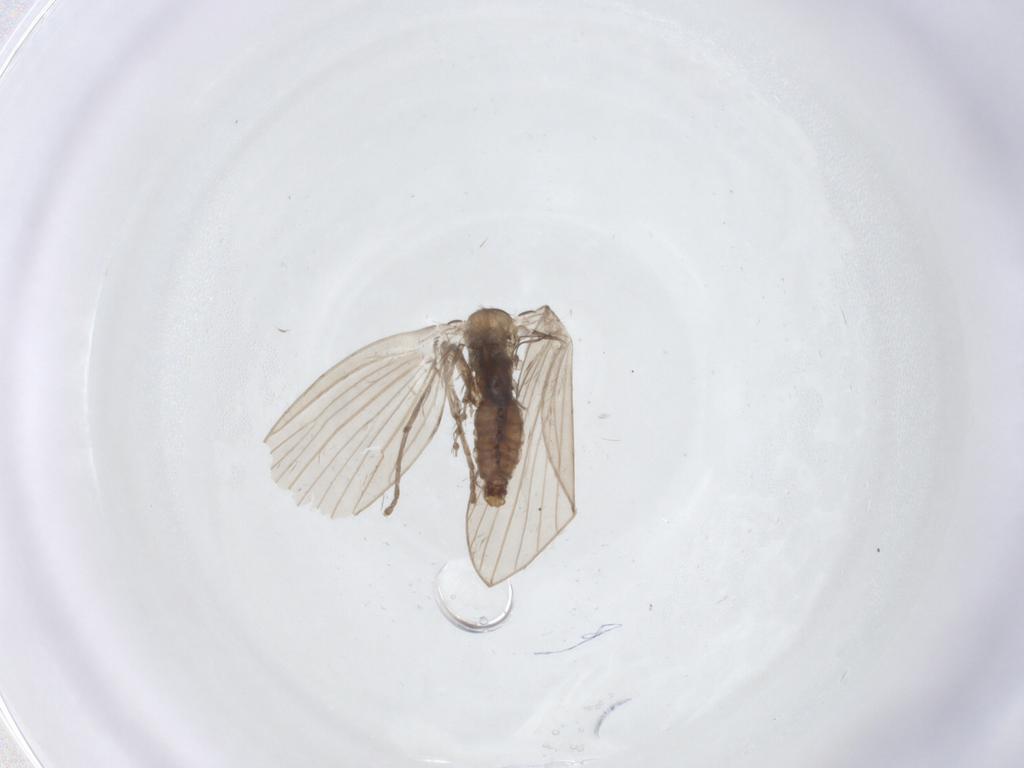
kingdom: Animalia
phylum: Arthropoda
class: Insecta
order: Diptera
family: Psychodidae
